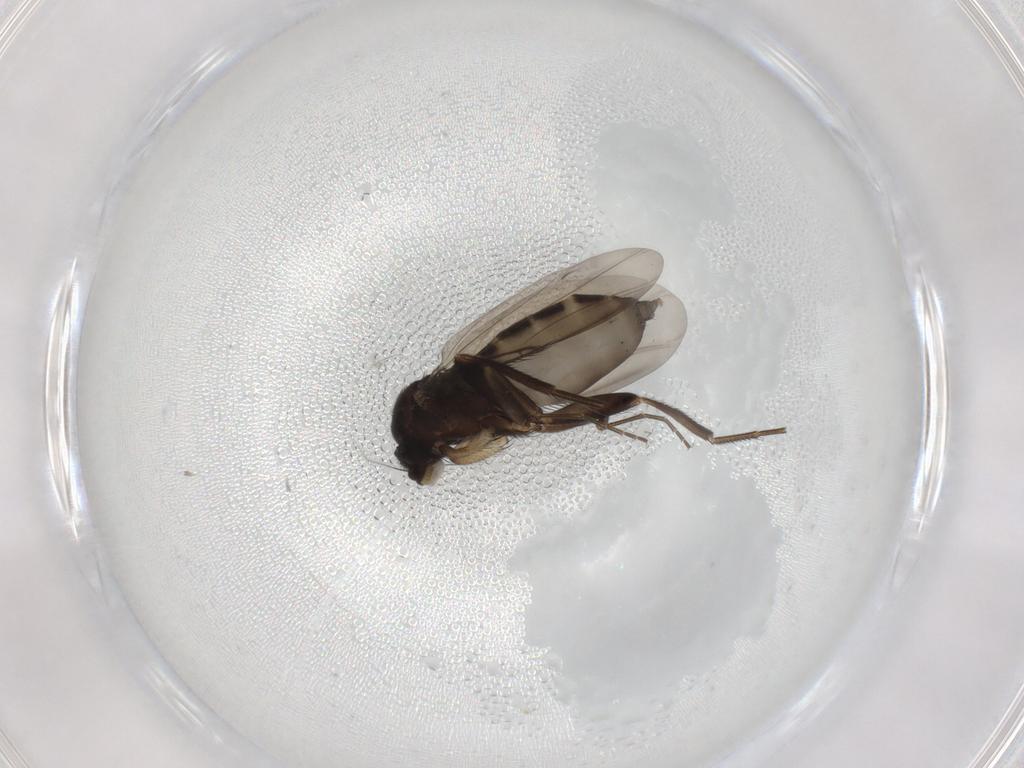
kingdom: Animalia
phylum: Arthropoda
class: Insecta
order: Diptera
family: Phoridae
